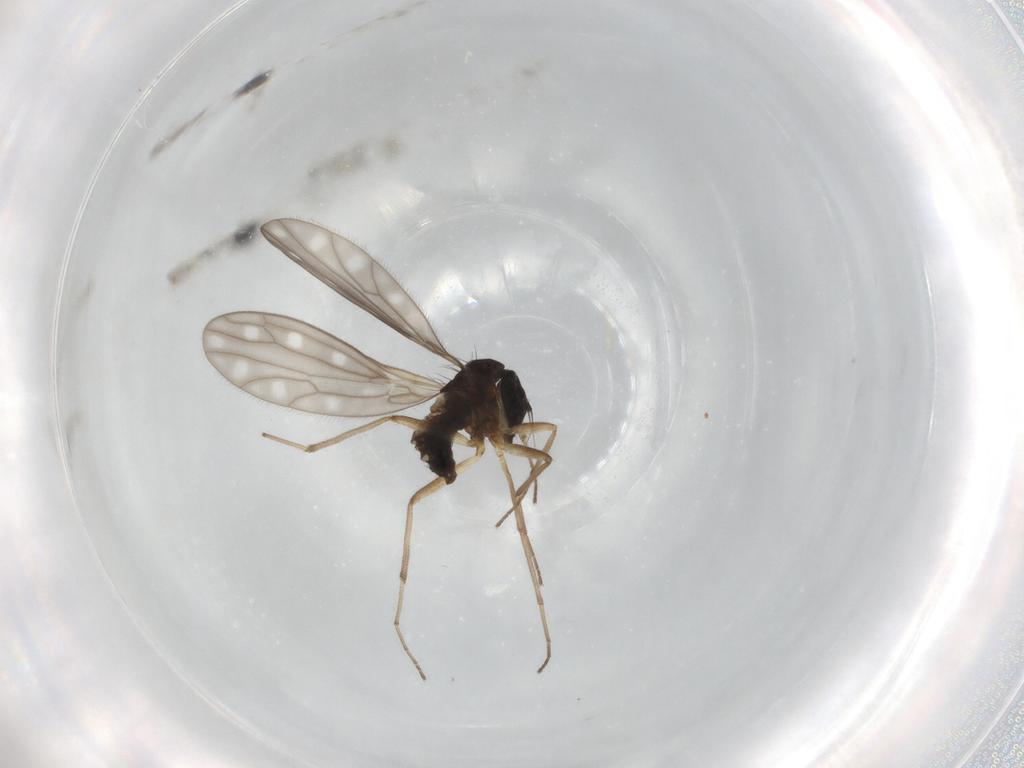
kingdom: Animalia
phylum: Arthropoda
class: Insecta
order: Diptera
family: Empididae
